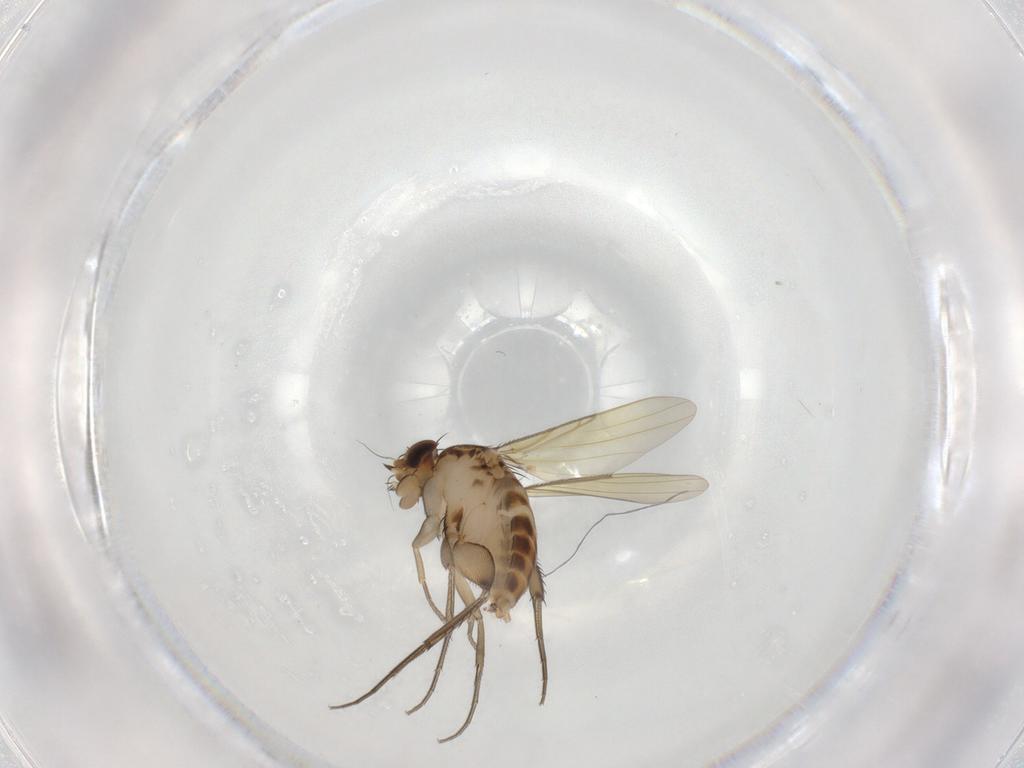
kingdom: Animalia
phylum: Arthropoda
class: Insecta
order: Diptera
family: Phoridae
